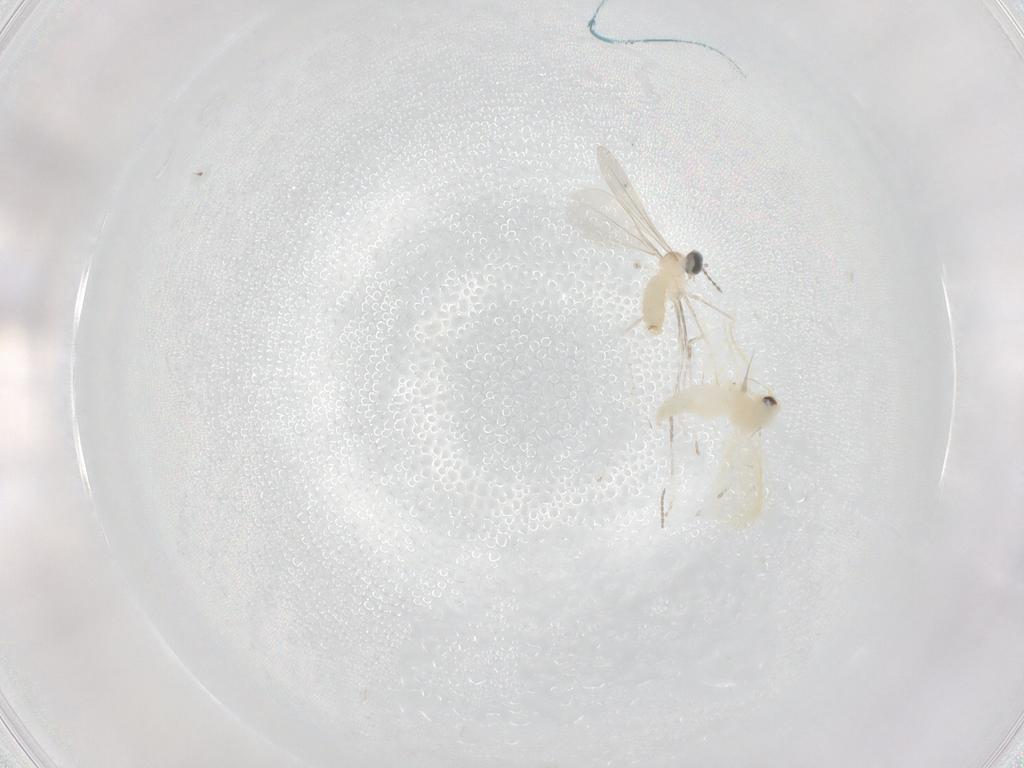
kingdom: Animalia
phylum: Arthropoda
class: Insecta
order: Diptera
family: Cecidomyiidae
